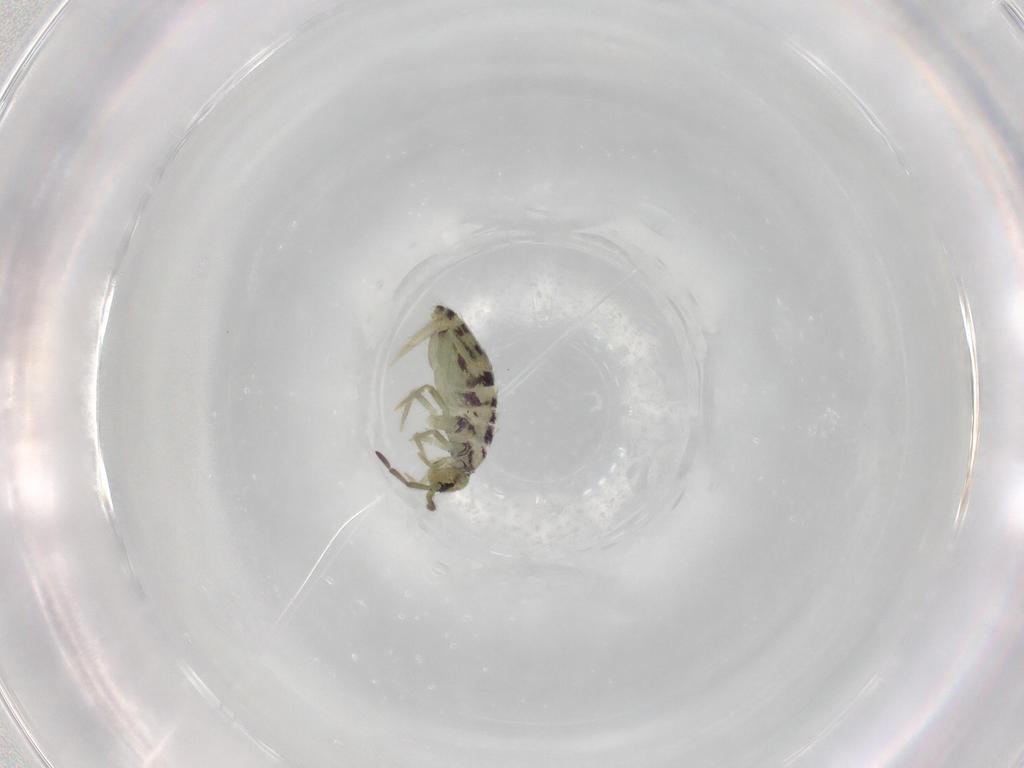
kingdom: Animalia
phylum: Arthropoda
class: Collembola
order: Entomobryomorpha
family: Entomobryidae
